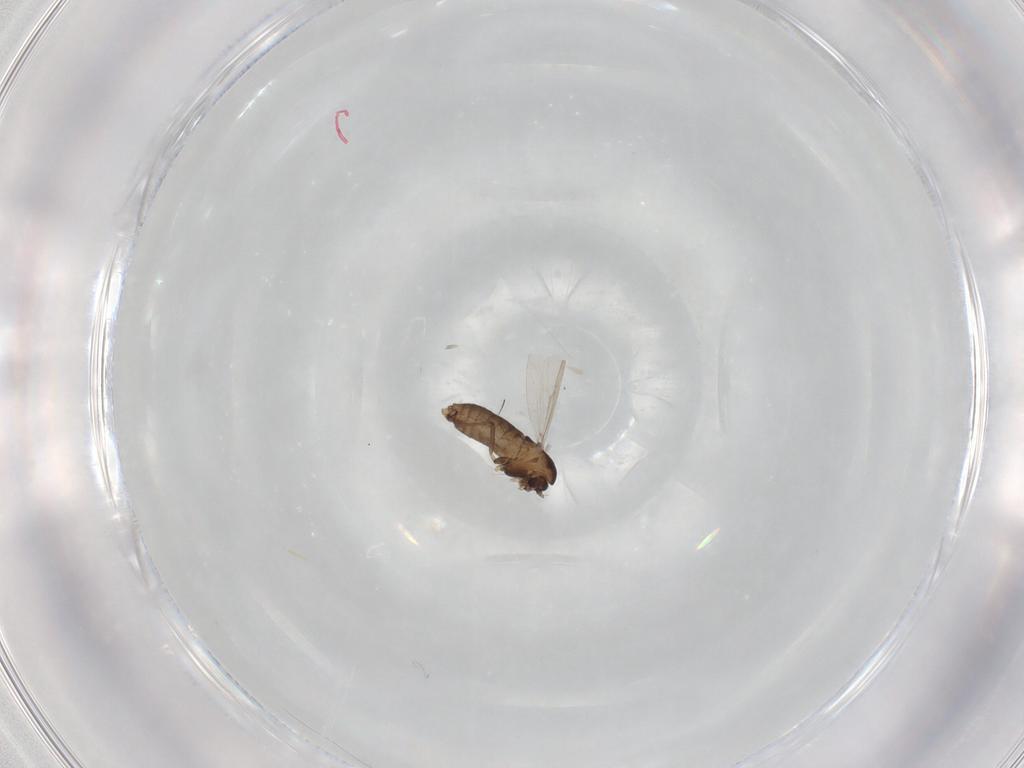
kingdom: Animalia
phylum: Arthropoda
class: Insecta
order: Diptera
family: Chironomidae
